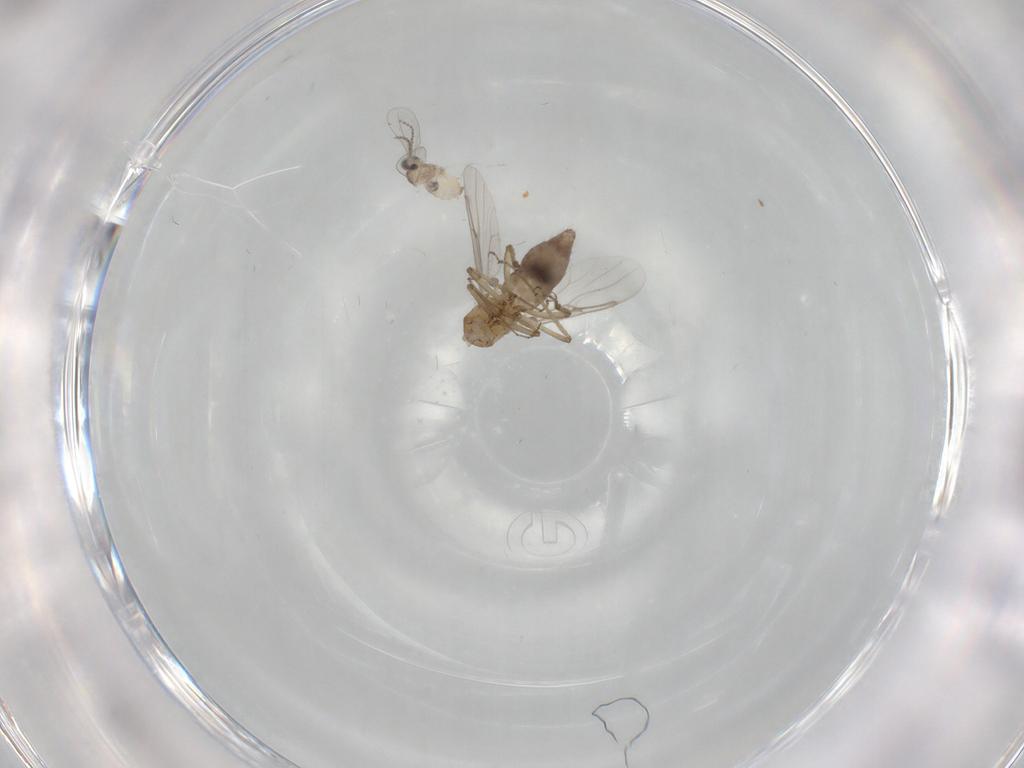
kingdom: Animalia
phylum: Arthropoda
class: Insecta
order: Diptera
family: Cecidomyiidae
